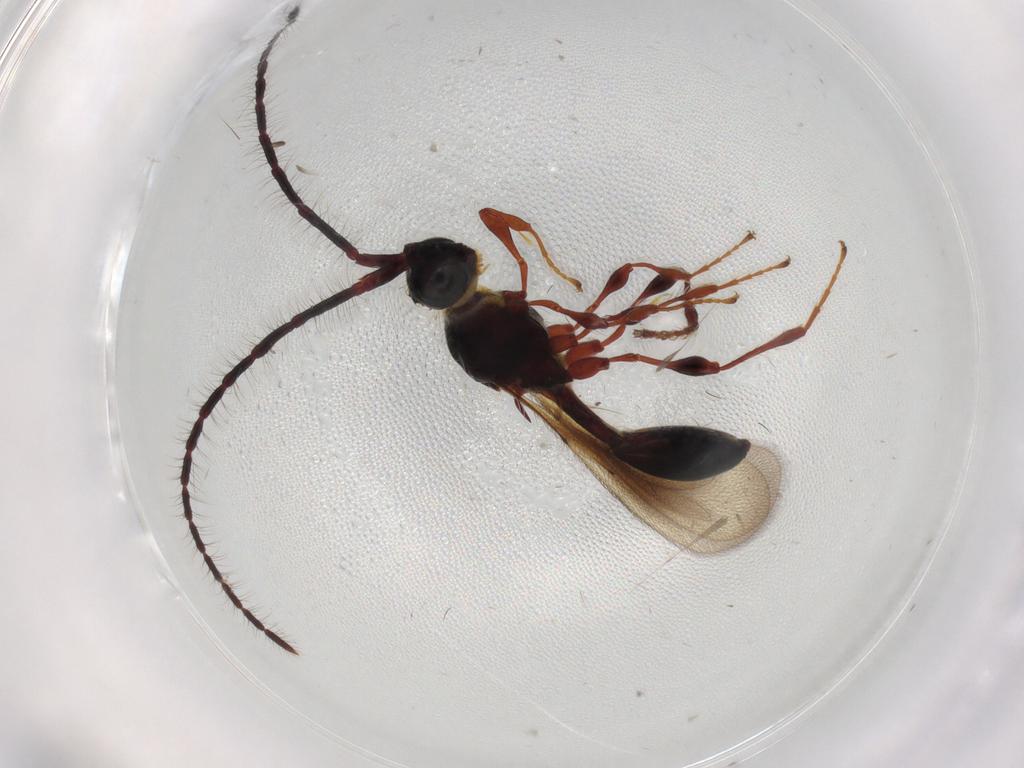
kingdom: Animalia
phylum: Arthropoda
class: Insecta
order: Hymenoptera
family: Diapriidae
